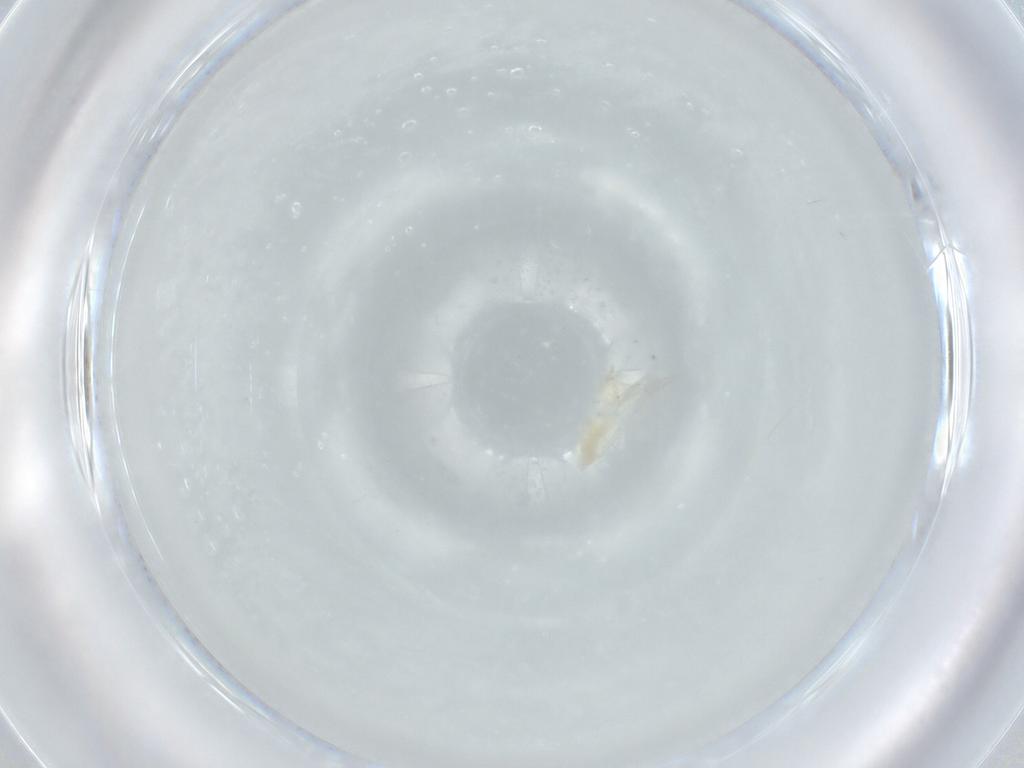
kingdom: Animalia
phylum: Arthropoda
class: Insecta
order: Diptera
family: Cecidomyiidae
